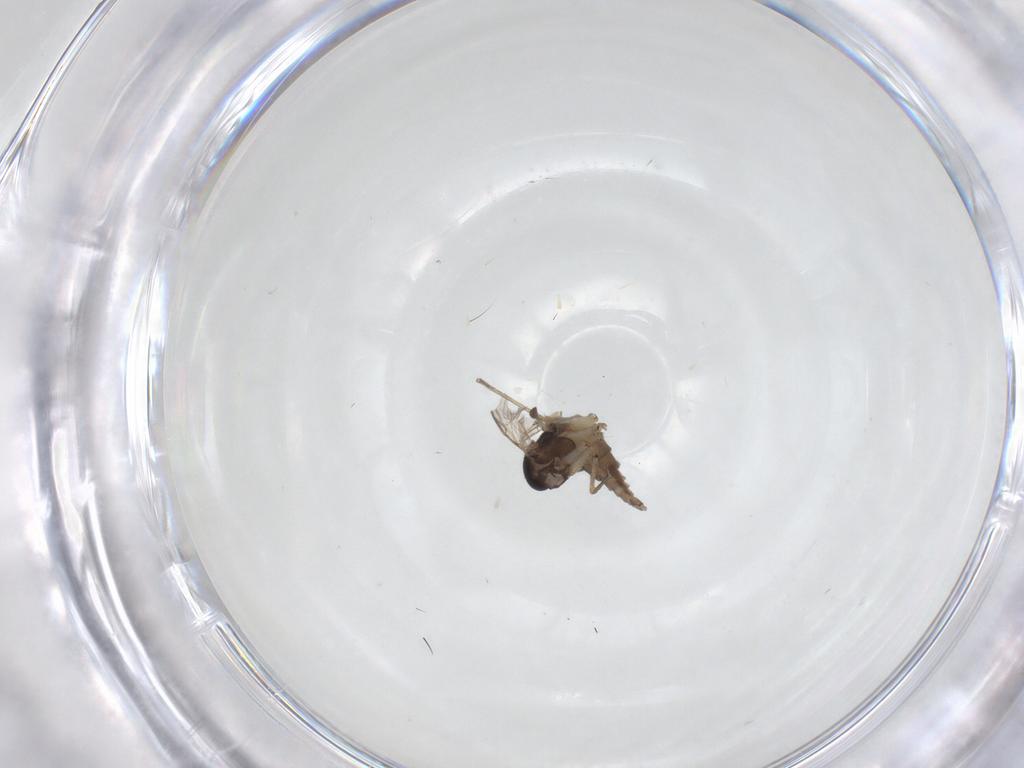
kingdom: Animalia
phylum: Arthropoda
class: Insecta
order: Diptera
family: Sciaridae
